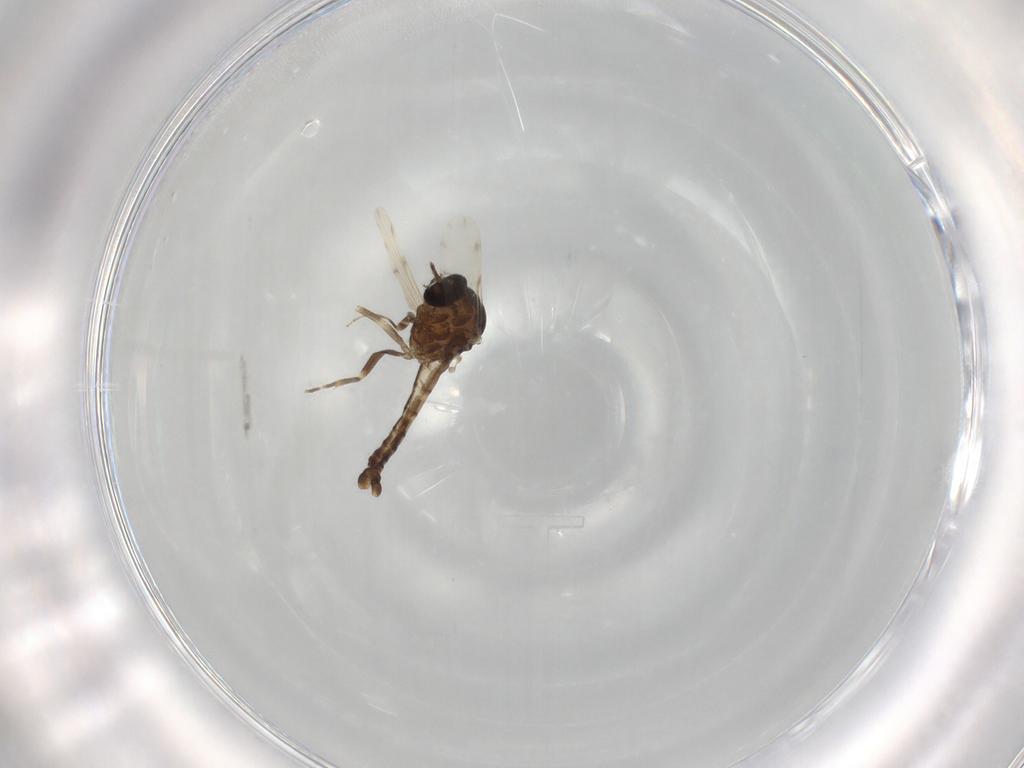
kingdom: Animalia
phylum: Arthropoda
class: Insecta
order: Diptera
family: Ceratopogonidae
